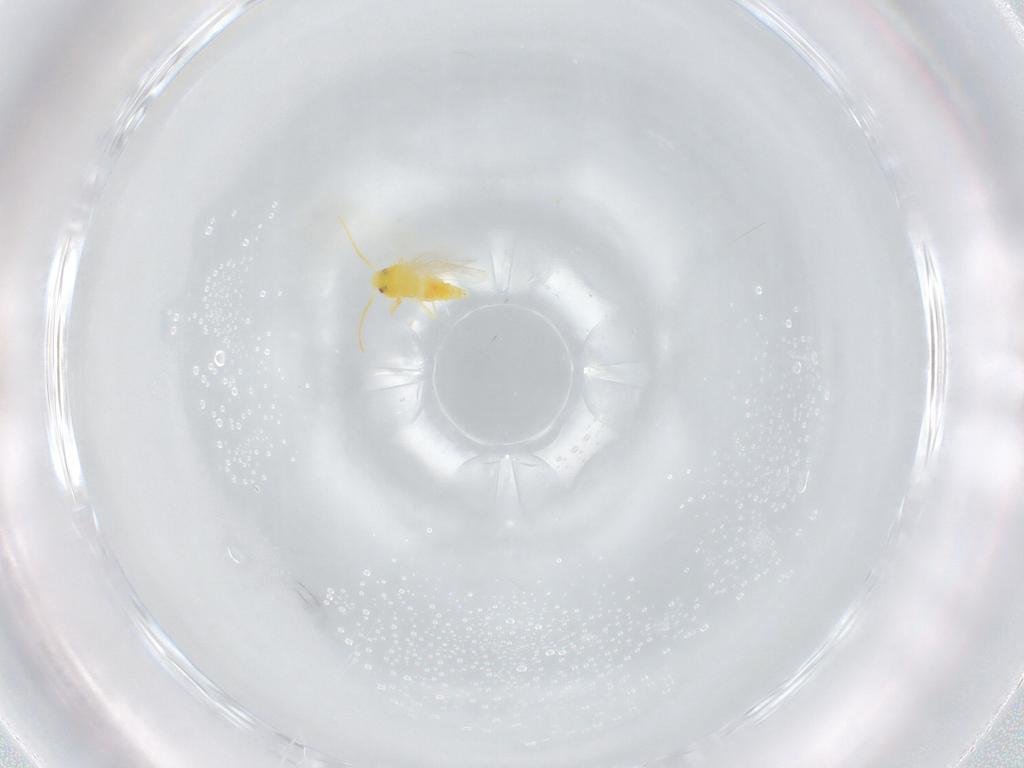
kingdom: Animalia
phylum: Arthropoda
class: Insecta
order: Hemiptera
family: Aleyrodidae
